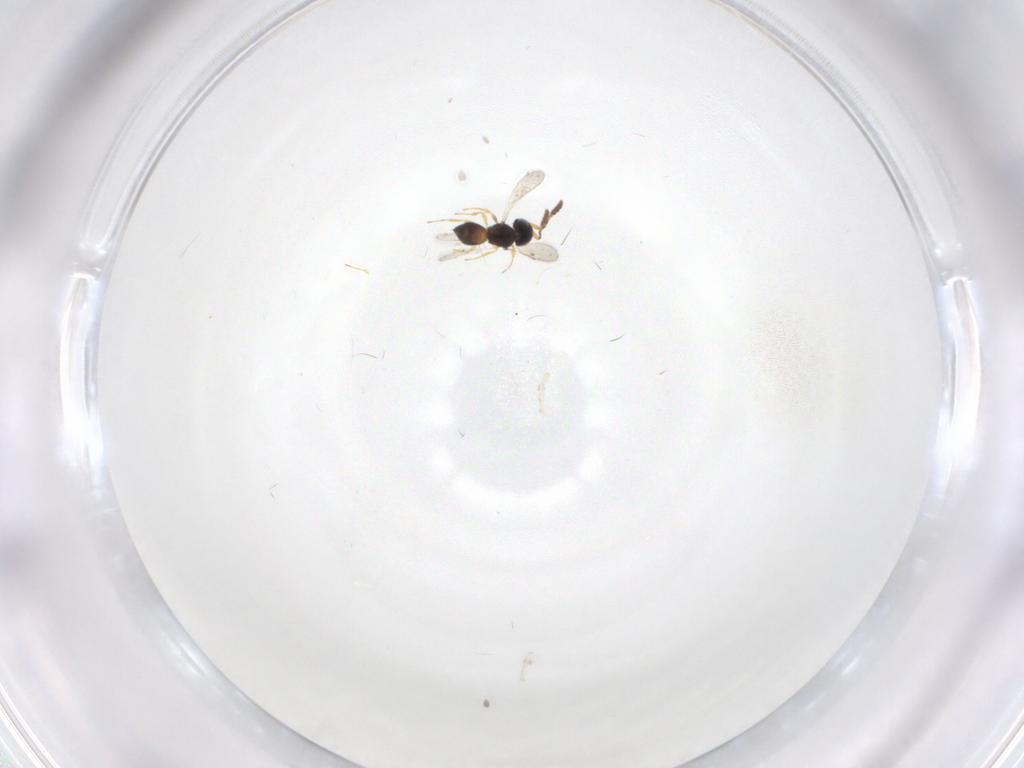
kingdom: Animalia
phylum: Arthropoda
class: Insecta
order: Hymenoptera
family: Scelionidae
